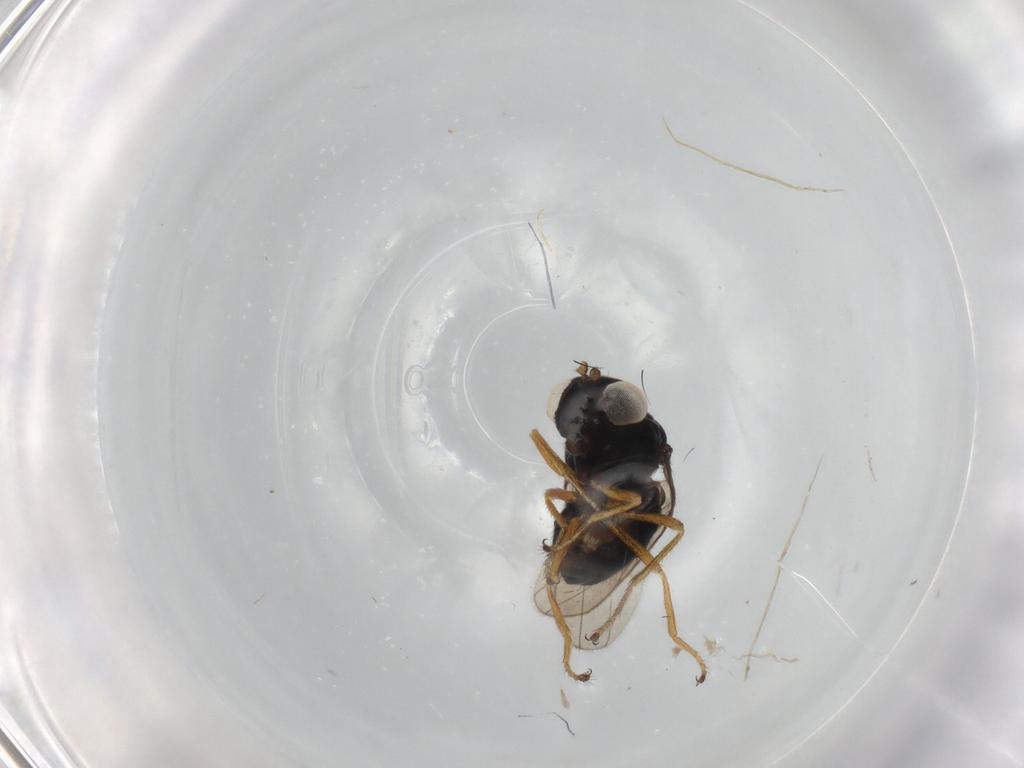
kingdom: Animalia
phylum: Arthropoda
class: Insecta
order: Diptera
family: Ephydridae
